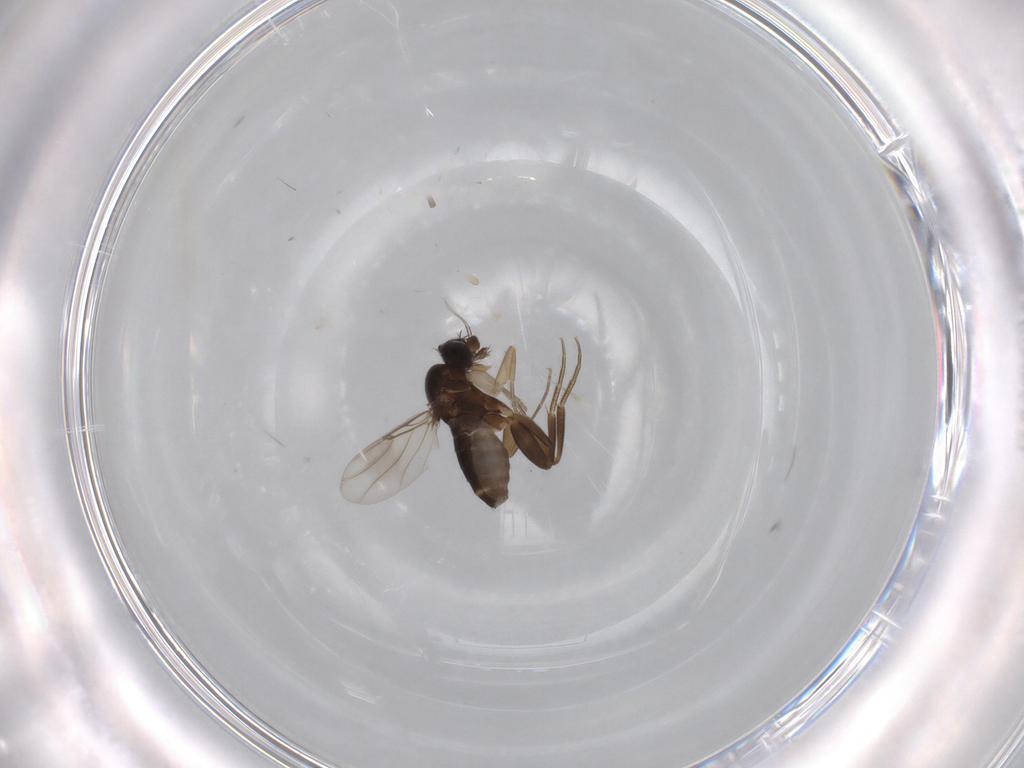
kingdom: Animalia
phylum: Arthropoda
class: Insecta
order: Diptera
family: Phoridae
